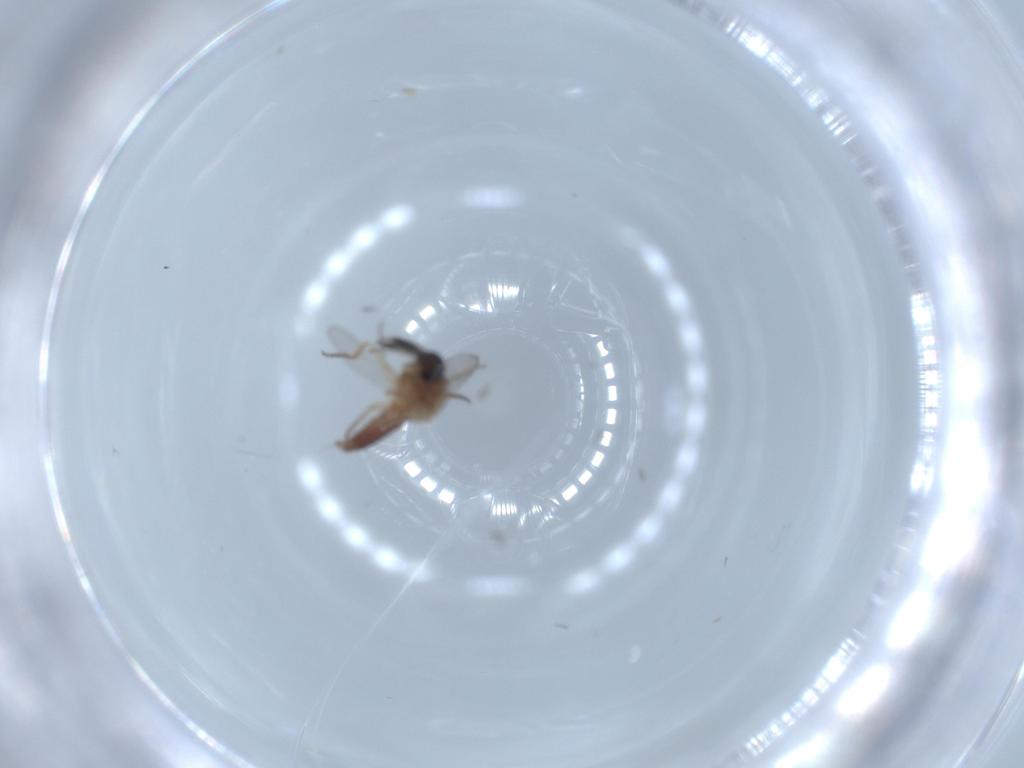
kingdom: Animalia
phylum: Arthropoda
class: Insecta
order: Diptera
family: Ceratopogonidae
